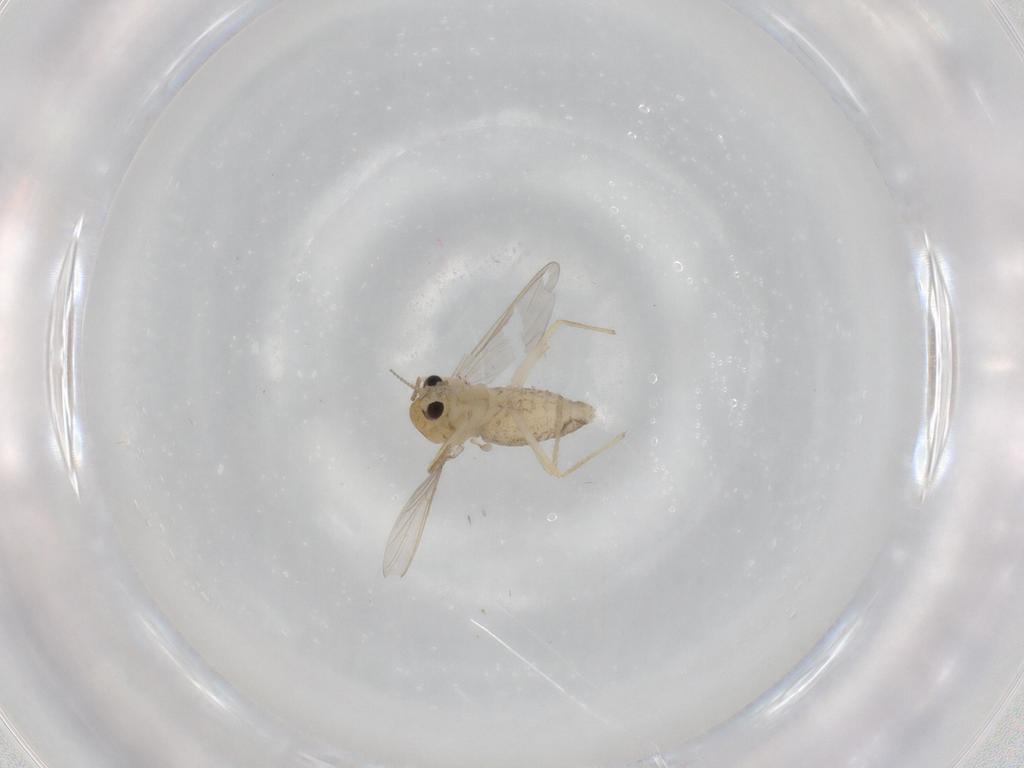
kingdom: Animalia
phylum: Arthropoda
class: Insecta
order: Diptera
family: Chironomidae
